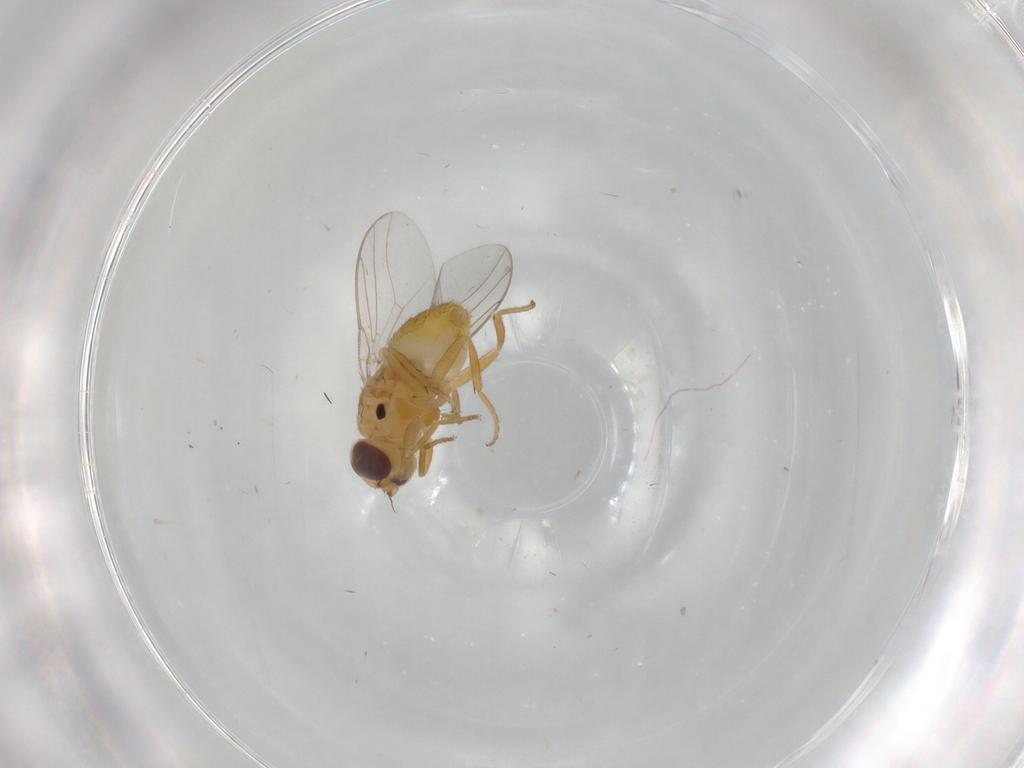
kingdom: Animalia
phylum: Arthropoda
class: Insecta
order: Diptera
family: Chloropidae
